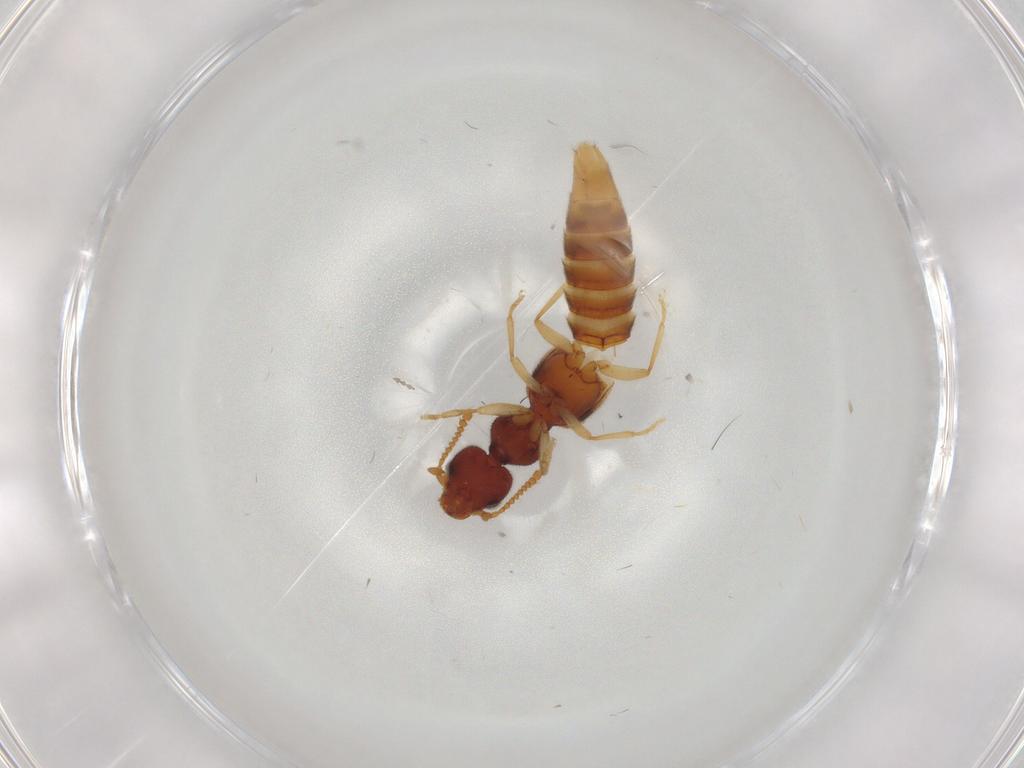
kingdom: Animalia
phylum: Arthropoda
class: Insecta
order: Coleoptera
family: Staphylinidae
